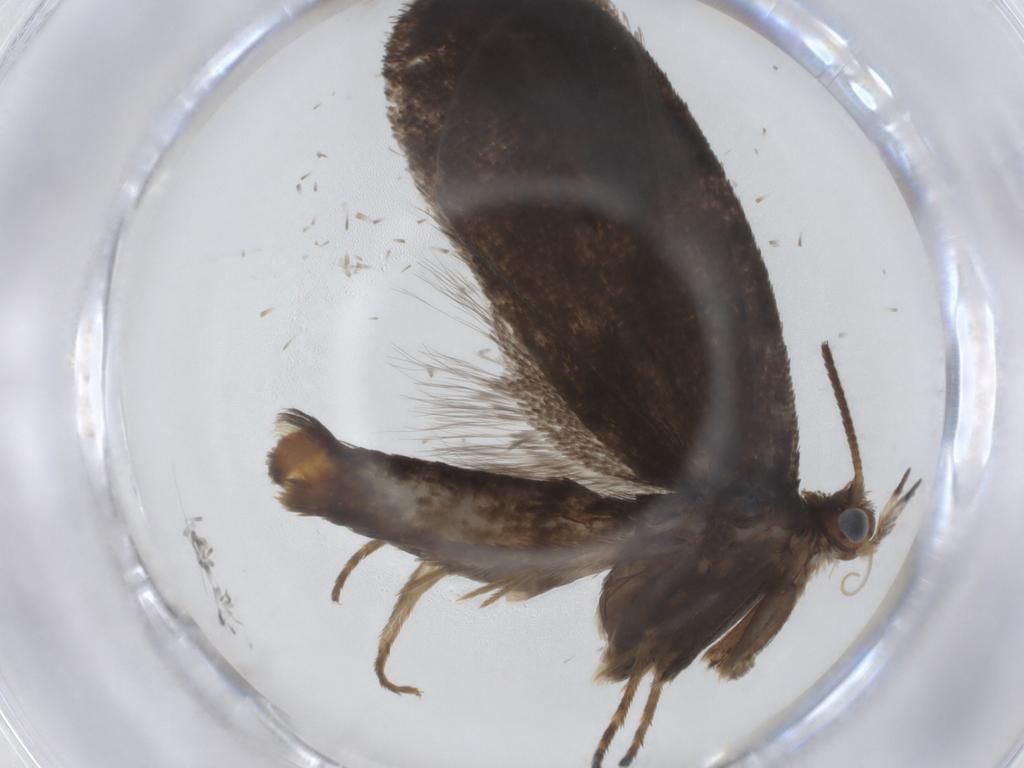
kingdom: Animalia
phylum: Arthropoda
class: Insecta
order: Lepidoptera
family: Tortricidae
